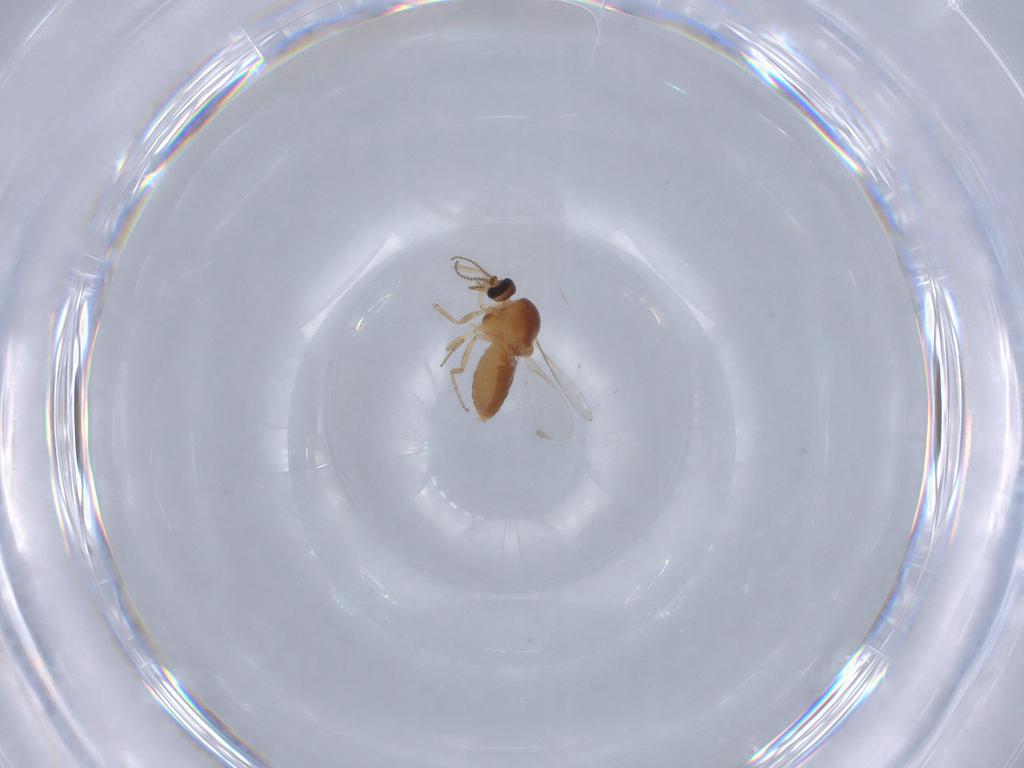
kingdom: Animalia
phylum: Arthropoda
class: Insecta
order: Diptera
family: Ceratopogonidae
